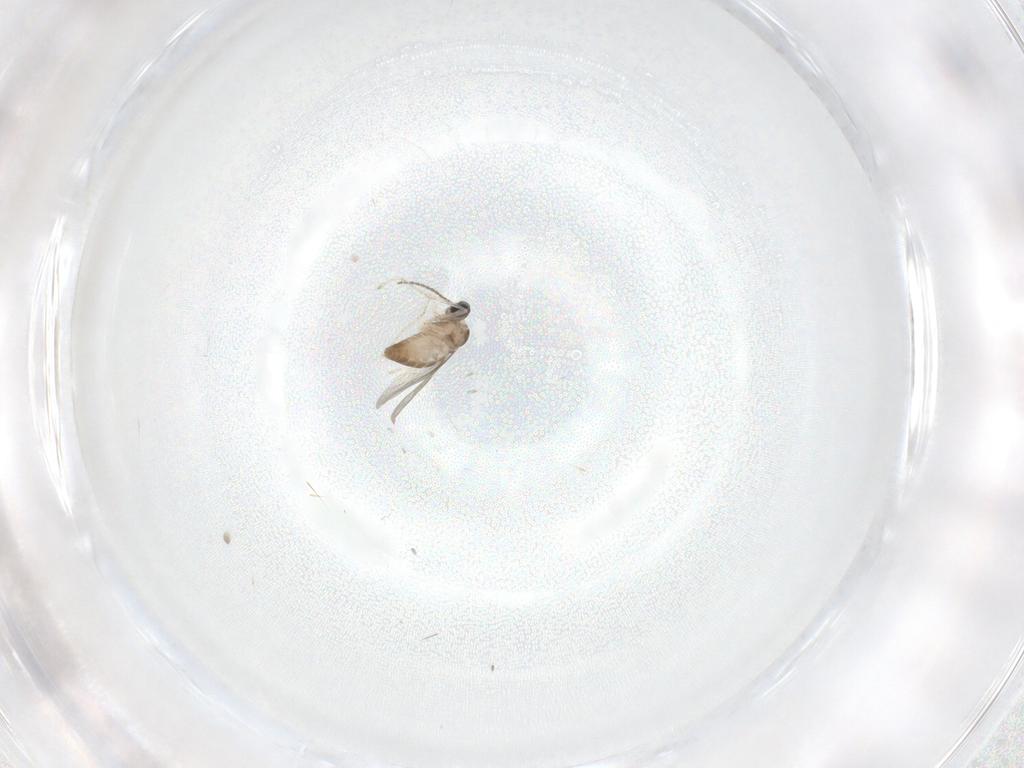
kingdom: Animalia
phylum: Arthropoda
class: Insecta
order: Diptera
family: Cecidomyiidae
